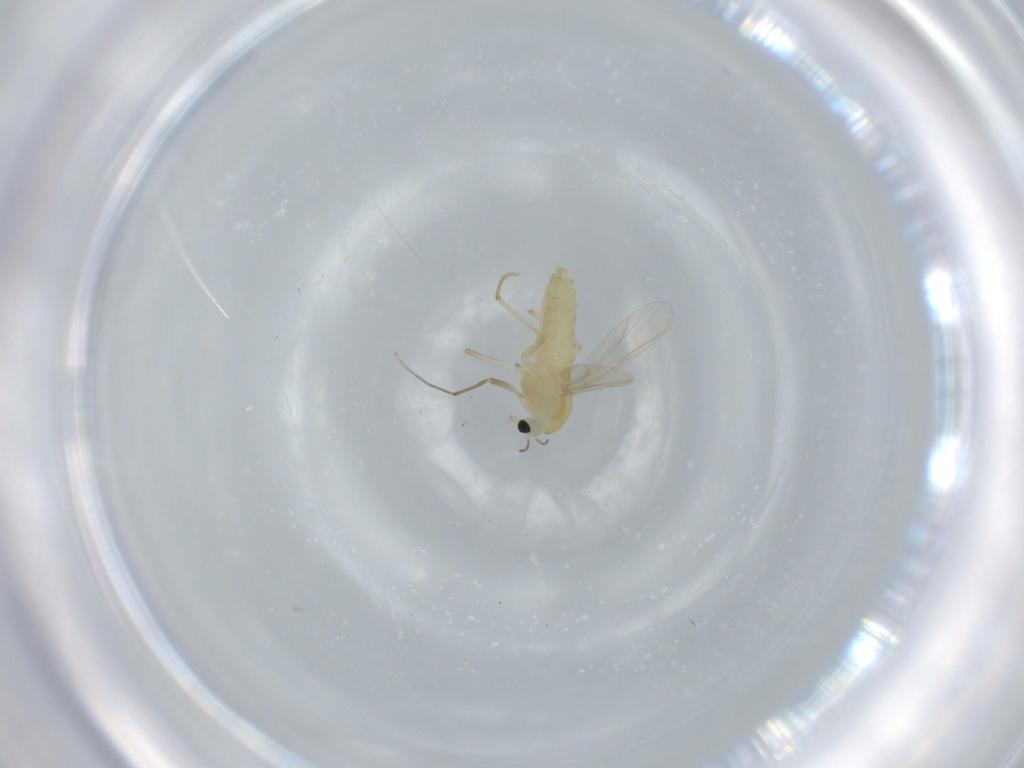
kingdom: Animalia
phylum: Arthropoda
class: Insecta
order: Diptera
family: Chironomidae
